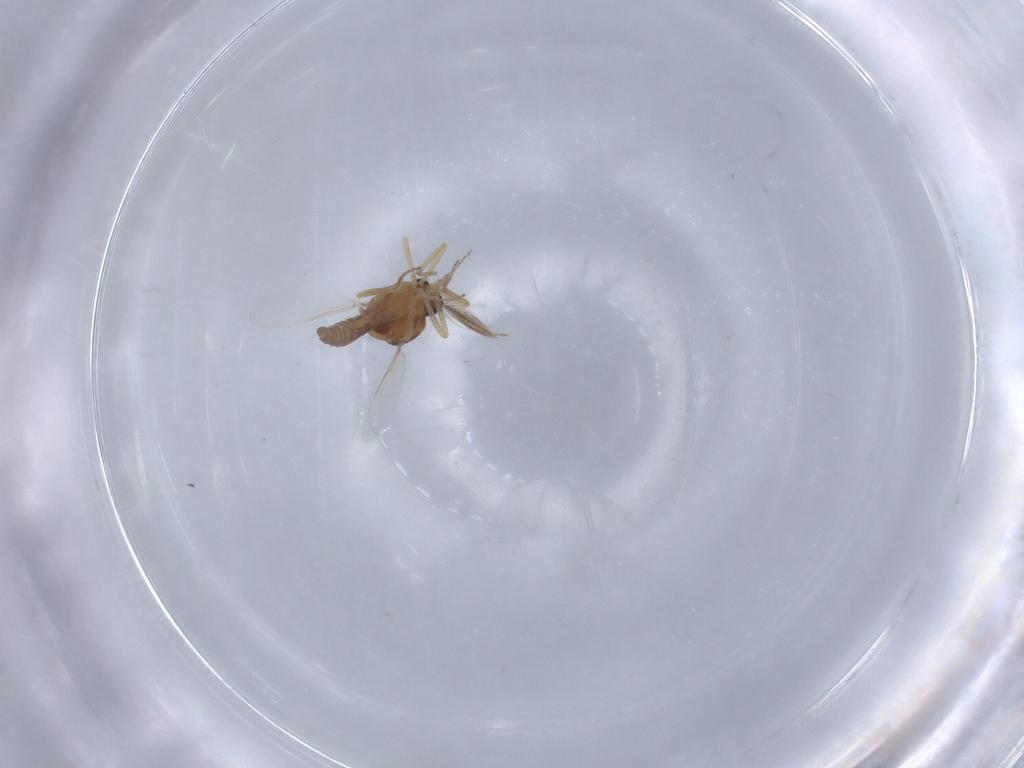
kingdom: Animalia
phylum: Arthropoda
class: Insecta
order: Diptera
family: Ceratopogonidae
